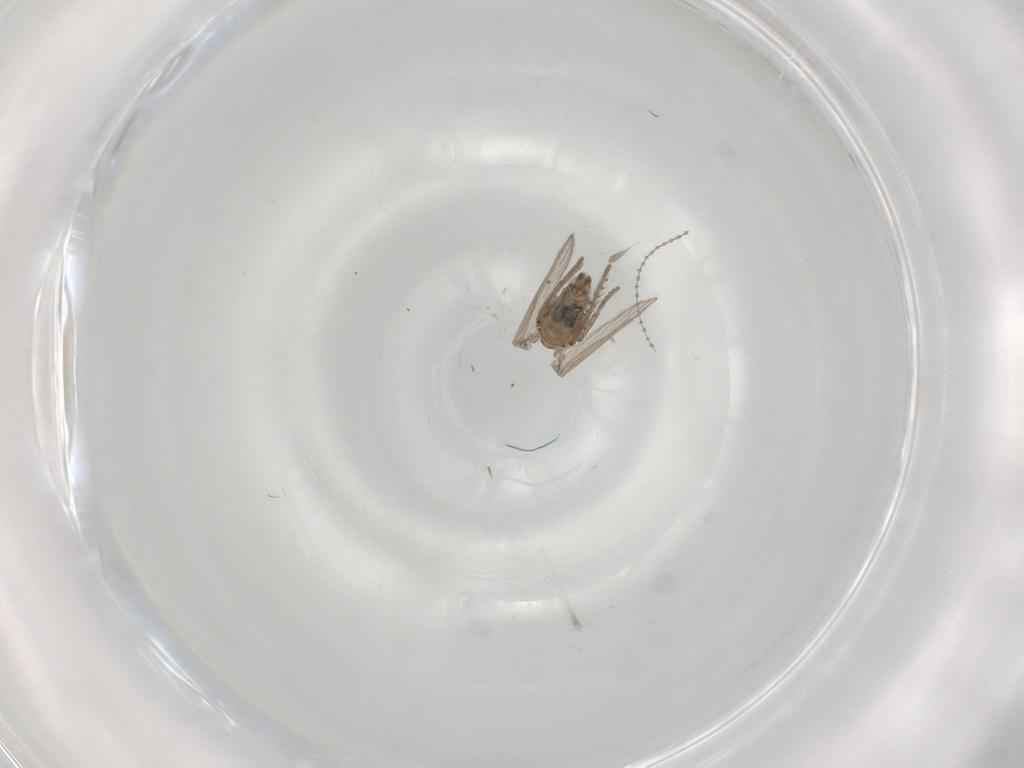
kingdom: Animalia
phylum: Arthropoda
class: Insecta
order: Diptera
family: Psychodidae
